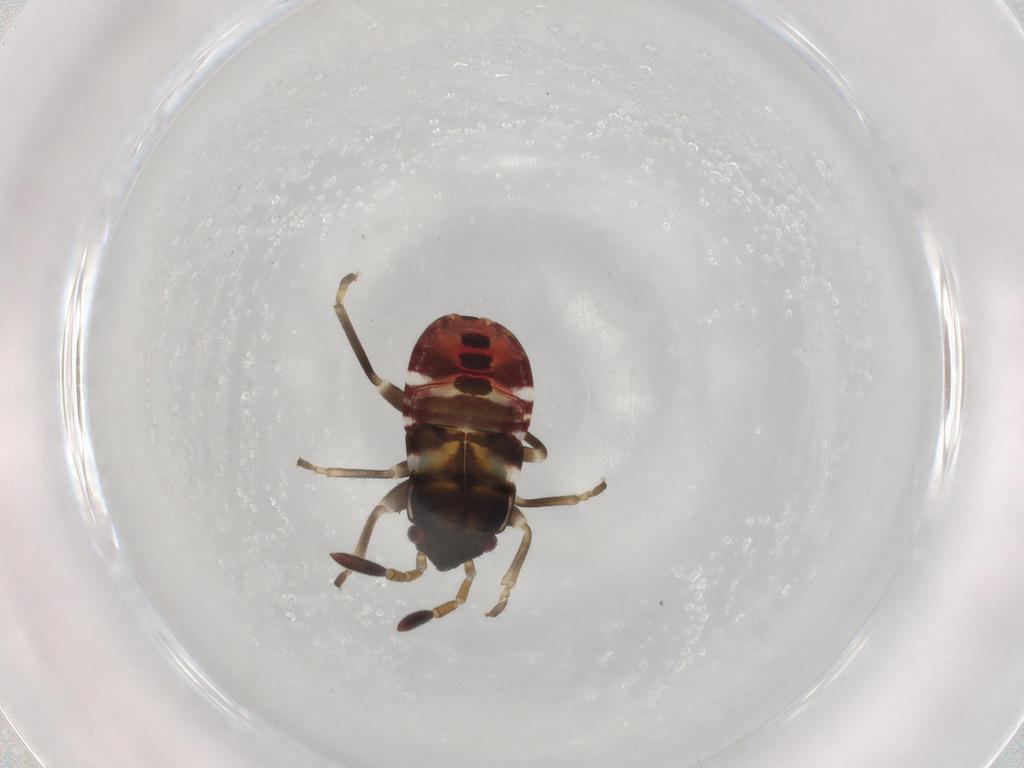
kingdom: Animalia
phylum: Arthropoda
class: Insecta
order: Hemiptera
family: Rhyparochromidae
